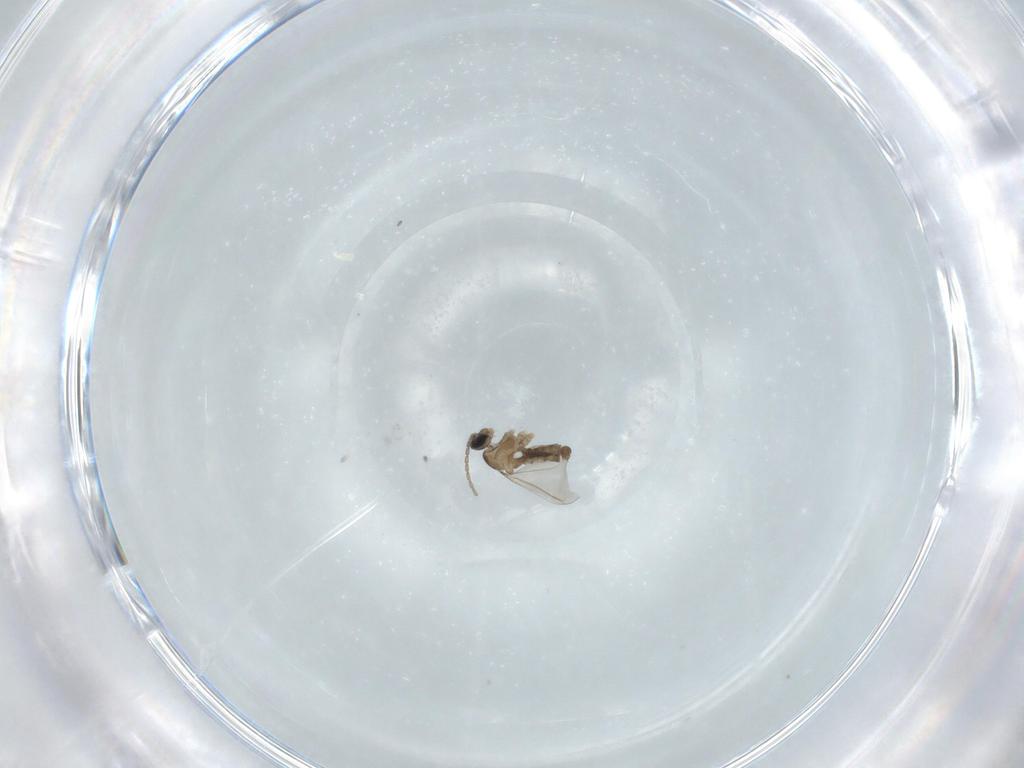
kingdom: Animalia
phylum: Arthropoda
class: Insecta
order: Diptera
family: Cecidomyiidae
